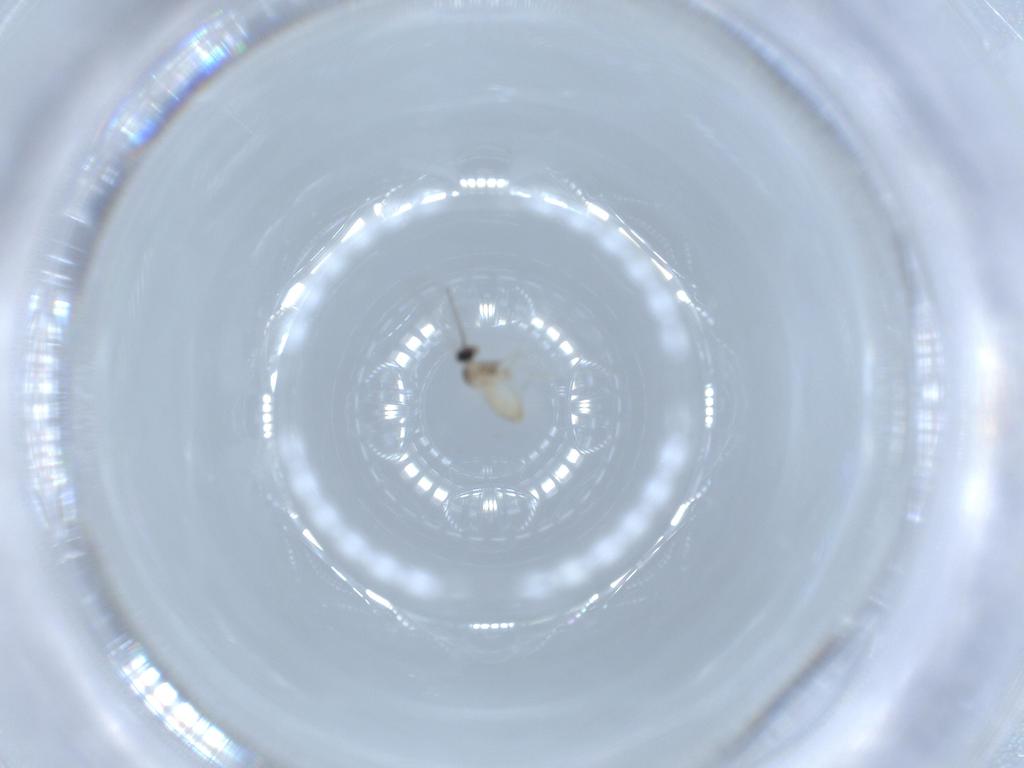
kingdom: Animalia
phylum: Arthropoda
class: Insecta
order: Diptera
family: Cecidomyiidae
